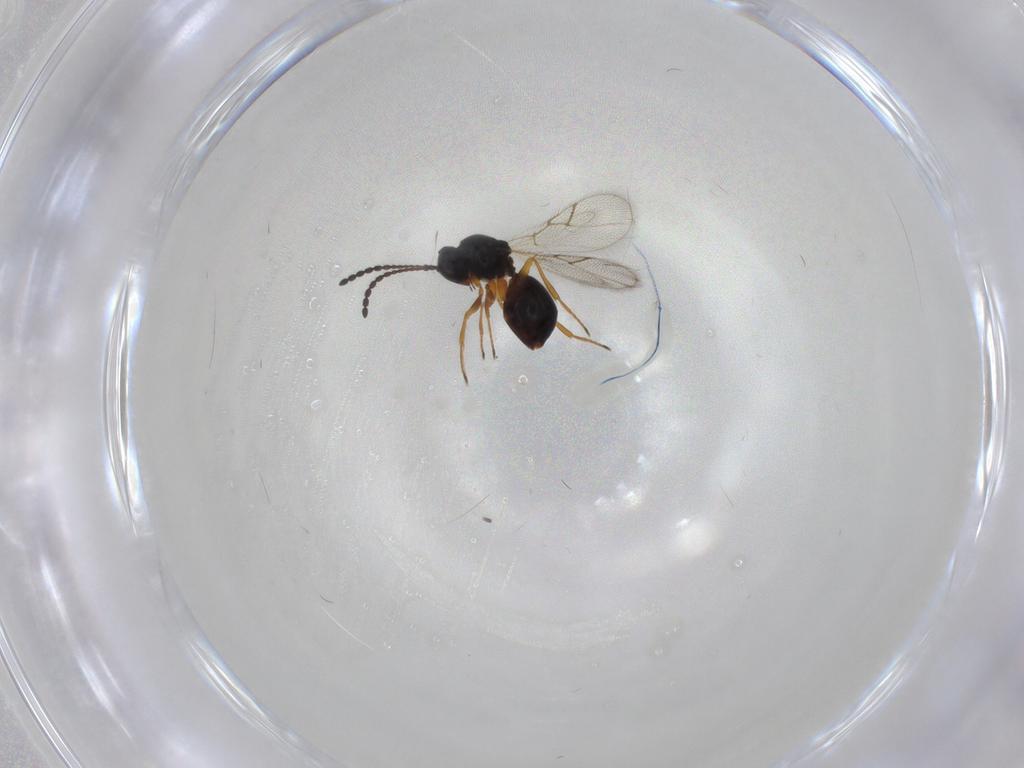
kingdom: Animalia
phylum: Arthropoda
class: Insecta
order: Hymenoptera
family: Figitidae
